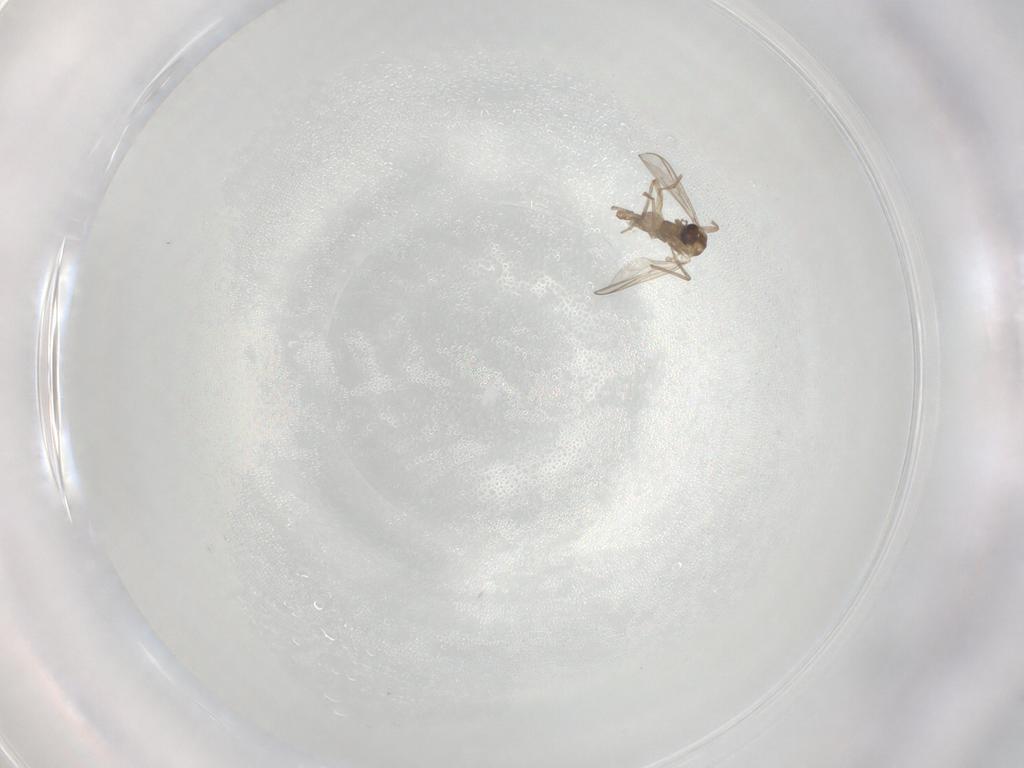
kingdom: Animalia
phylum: Arthropoda
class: Insecta
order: Diptera
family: Chironomidae
